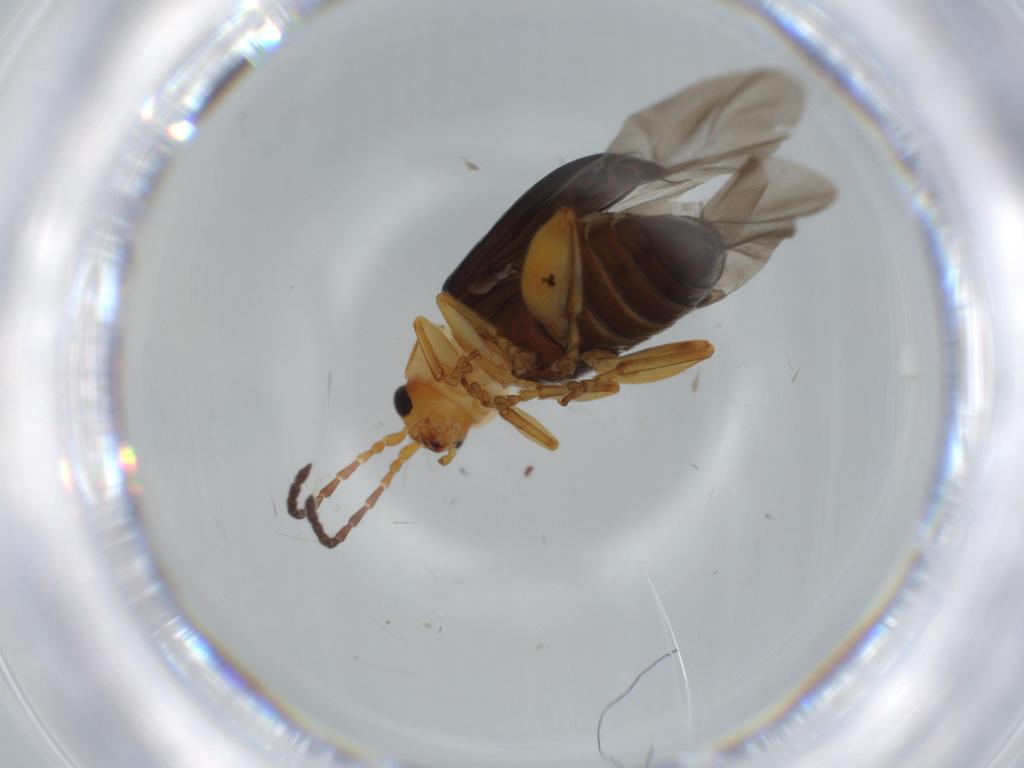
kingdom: Animalia
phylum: Arthropoda
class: Insecta
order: Coleoptera
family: Chrysomelidae
